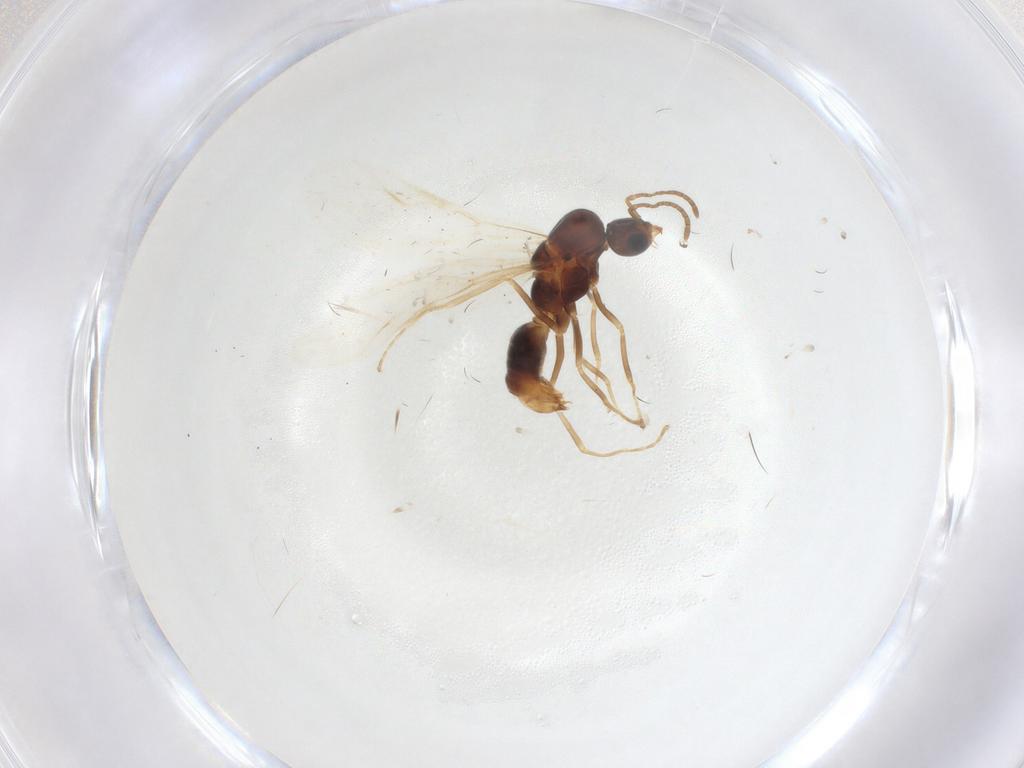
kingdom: Animalia
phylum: Arthropoda
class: Insecta
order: Hymenoptera
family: Formicidae
